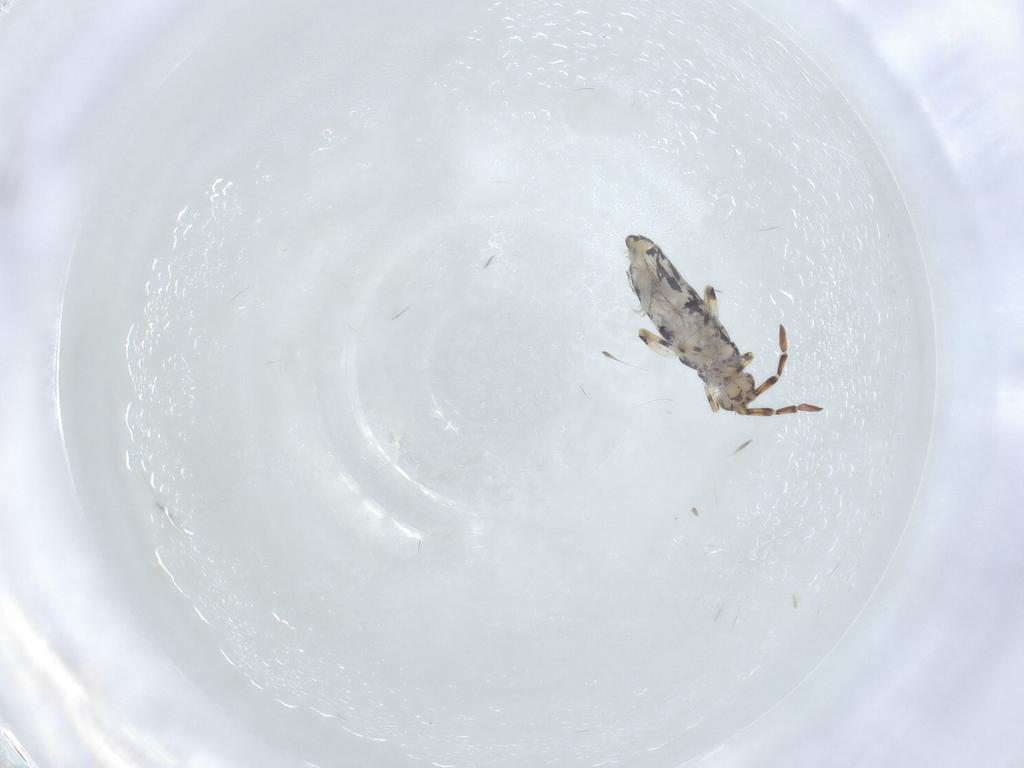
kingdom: Animalia
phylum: Arthropoda
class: Collembola
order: Entomobryomorpha
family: Entomobryidae
